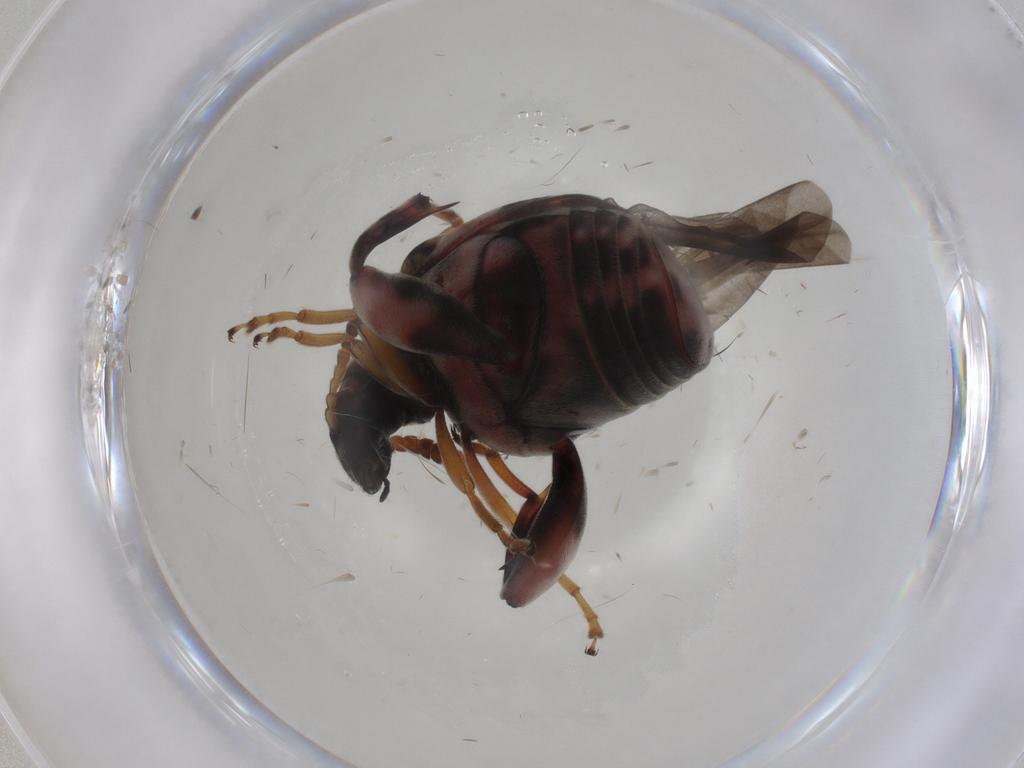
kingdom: Animalia
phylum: Arthropoda
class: Insecta
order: Coleoptera
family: Chrysomelidae
